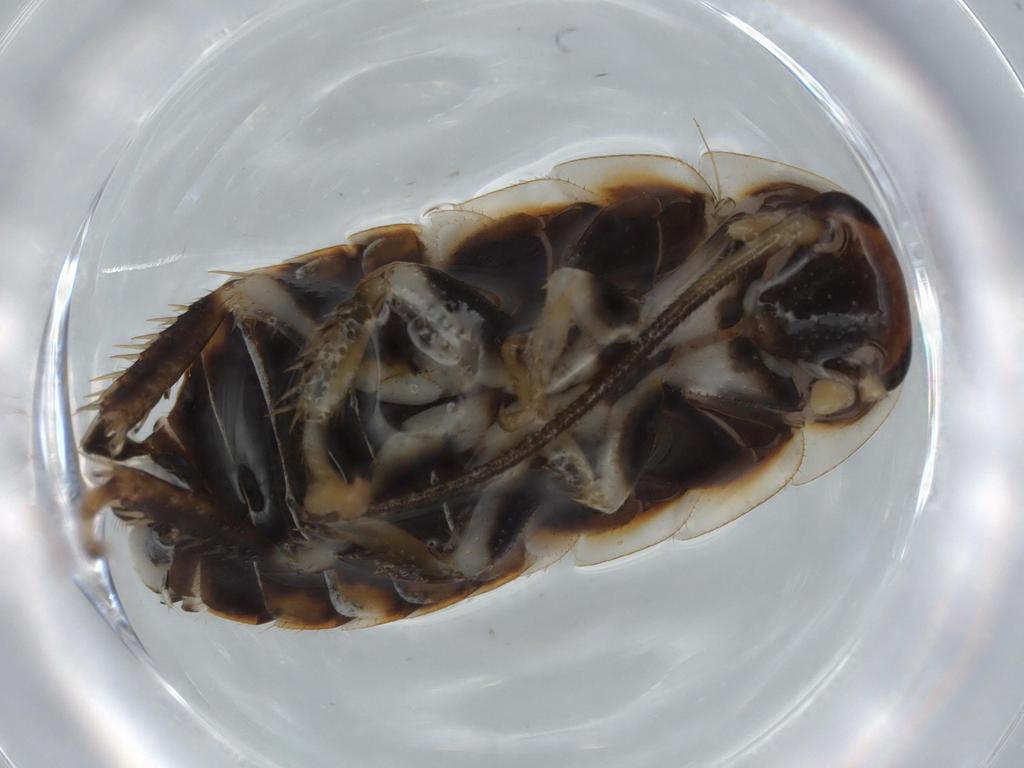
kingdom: Animalia
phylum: Arthropoda
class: Insecta
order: Blattodea
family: Ectobiidae
